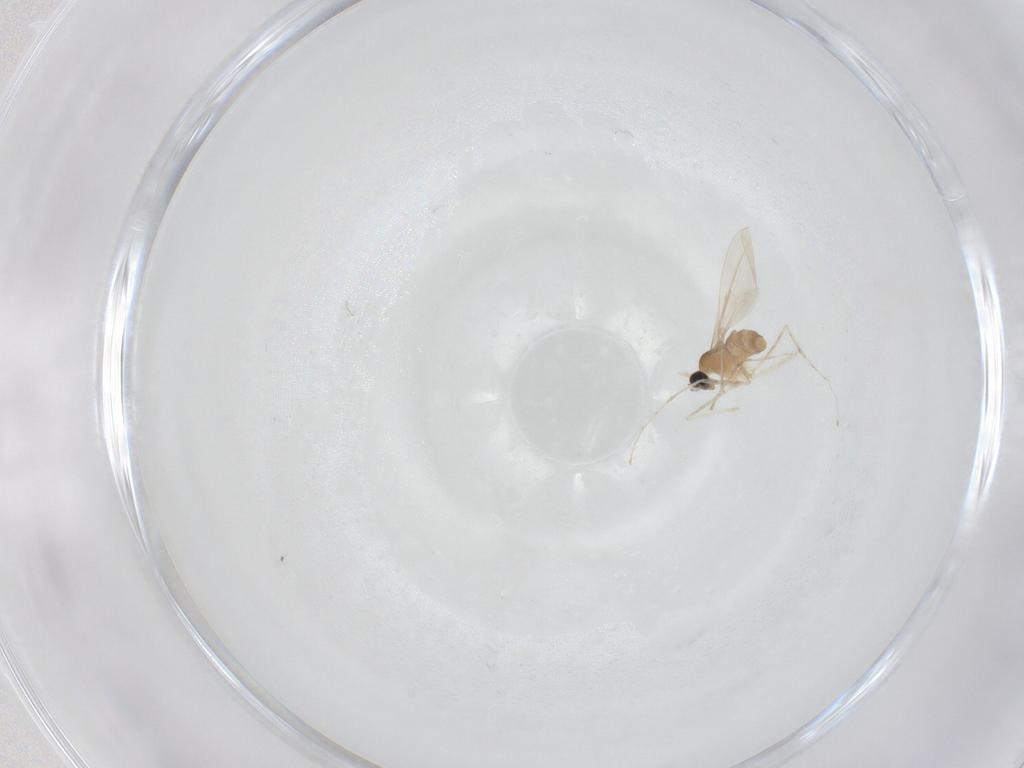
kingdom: Animalia
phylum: Arthropoda
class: Insecta
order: Diptera
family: Cecidomyiidae
